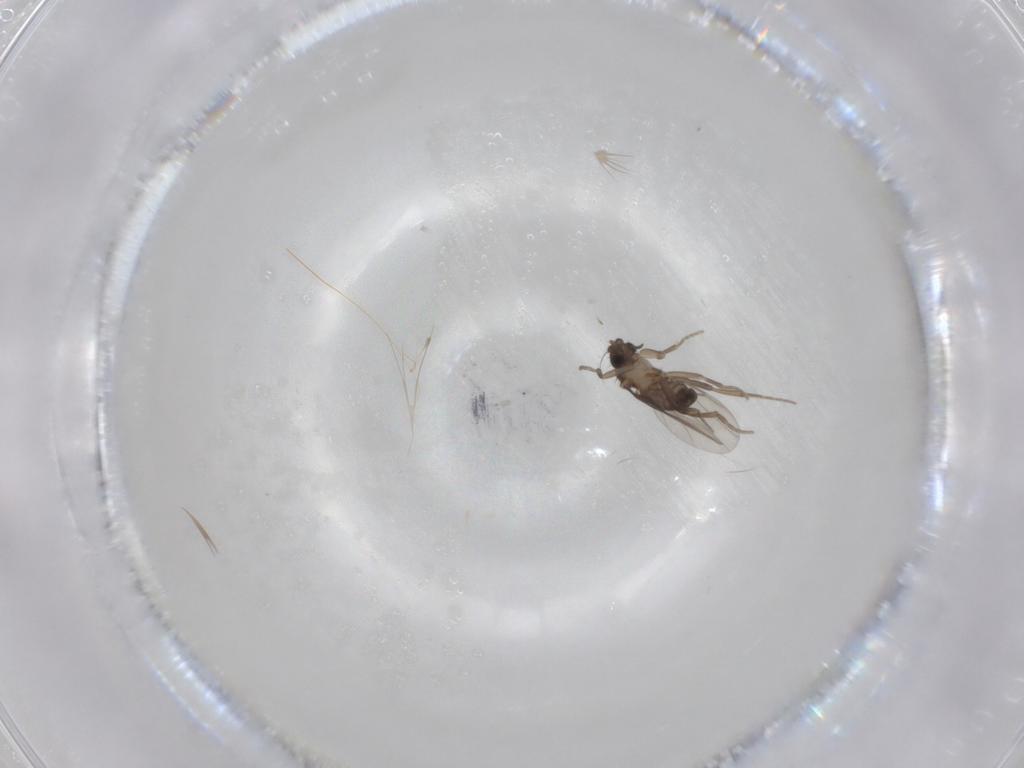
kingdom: Animalia
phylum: Arthropoda
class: Insecta
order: Diptera
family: Phoridae
